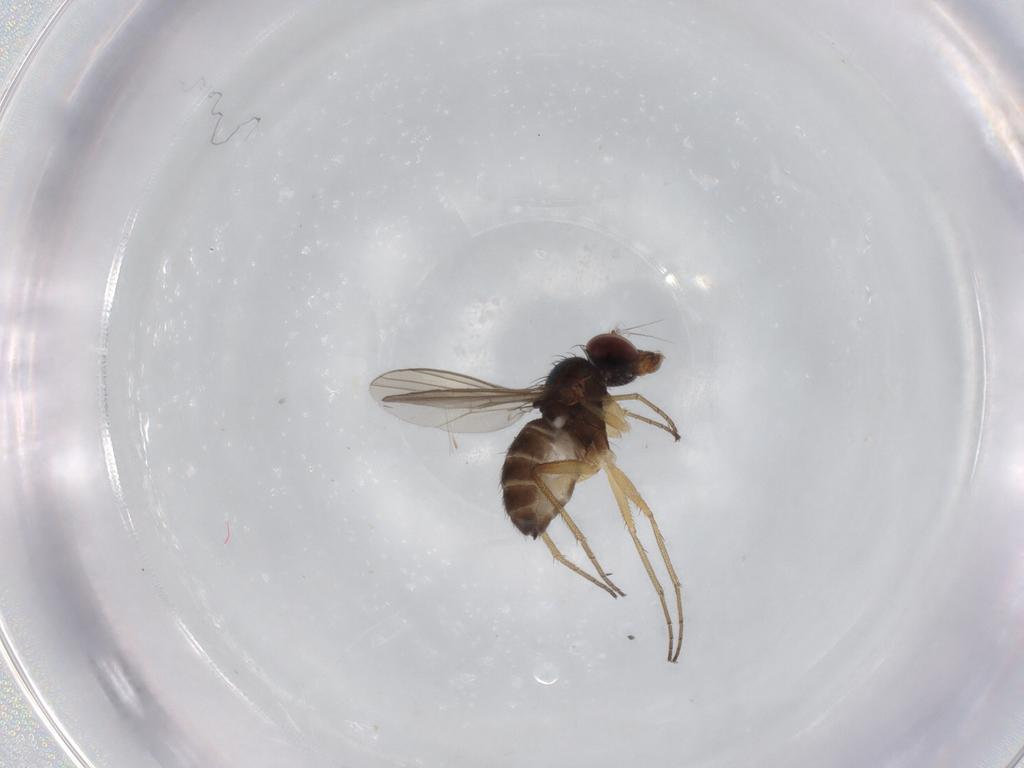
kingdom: Animalia
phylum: Arthropoda
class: Insecta
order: Diptera
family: Dolichopodidae
